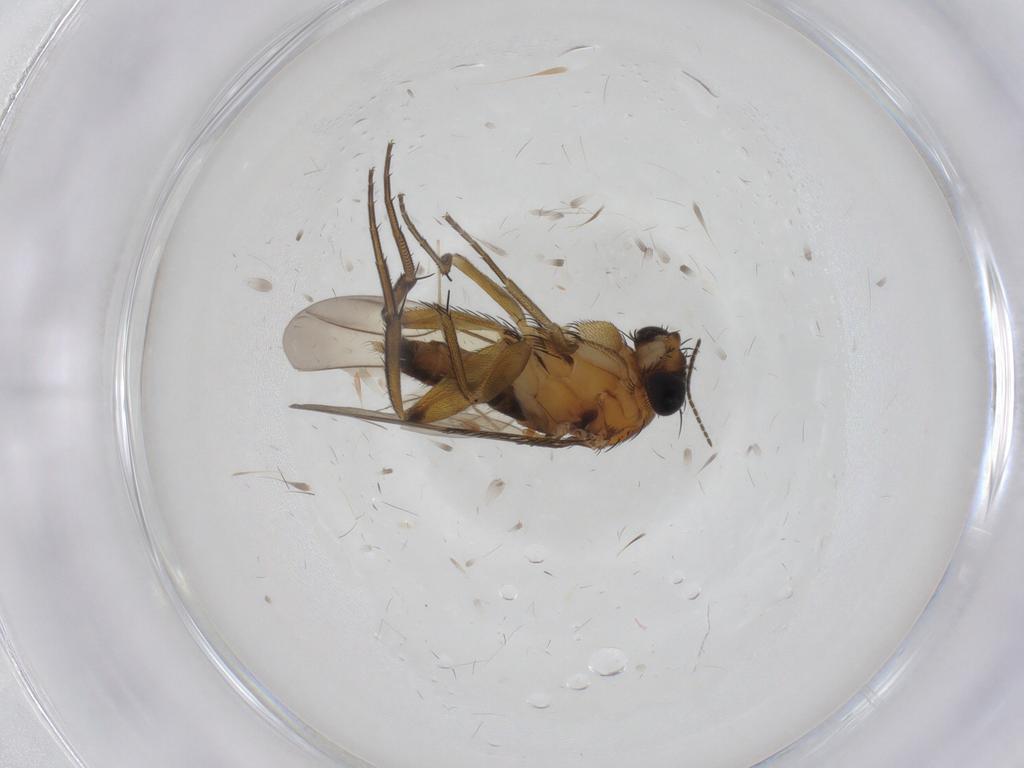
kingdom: Animalia
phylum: Arthropoda
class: Insecta
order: Diptera
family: Phoridae
